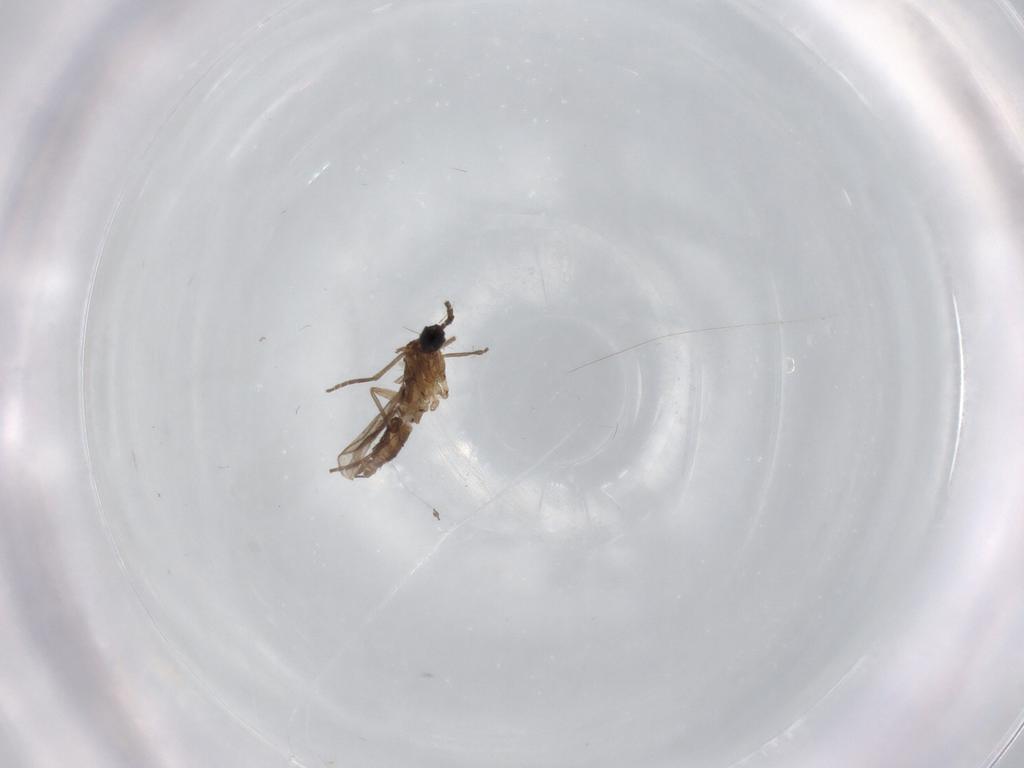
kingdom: Animalia
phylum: Arthropoda
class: Insecta
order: Diptera
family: Sciaridae
